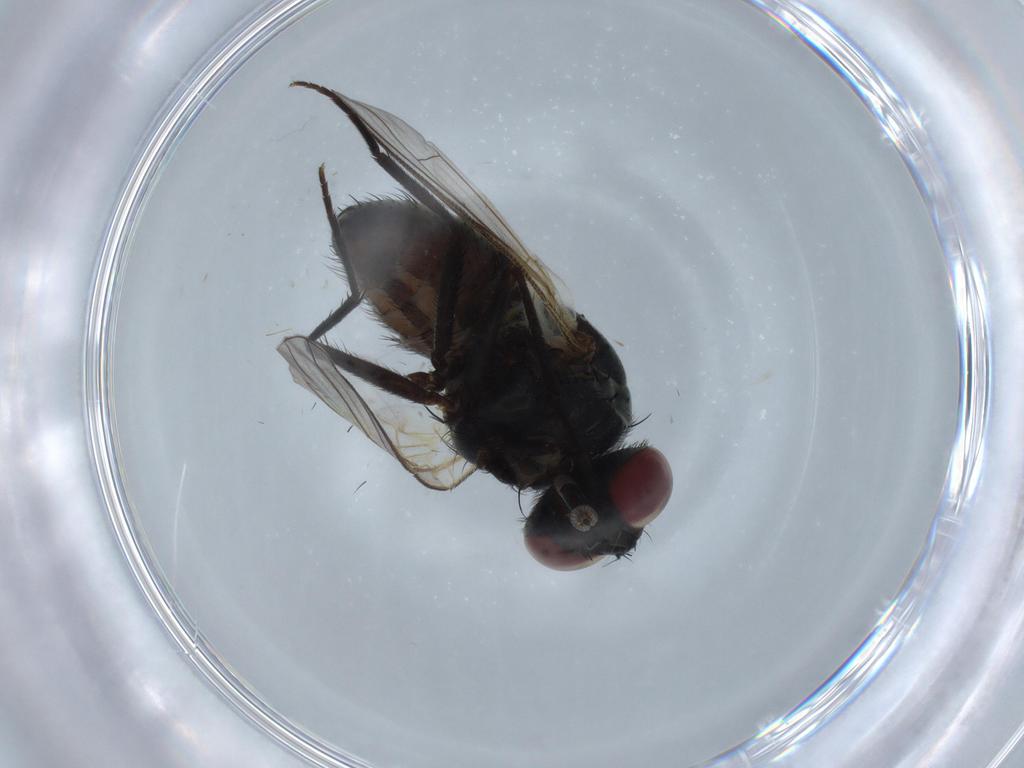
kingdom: Animalia
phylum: Arthropoda
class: Insecta
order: Diptera
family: Muscidae
